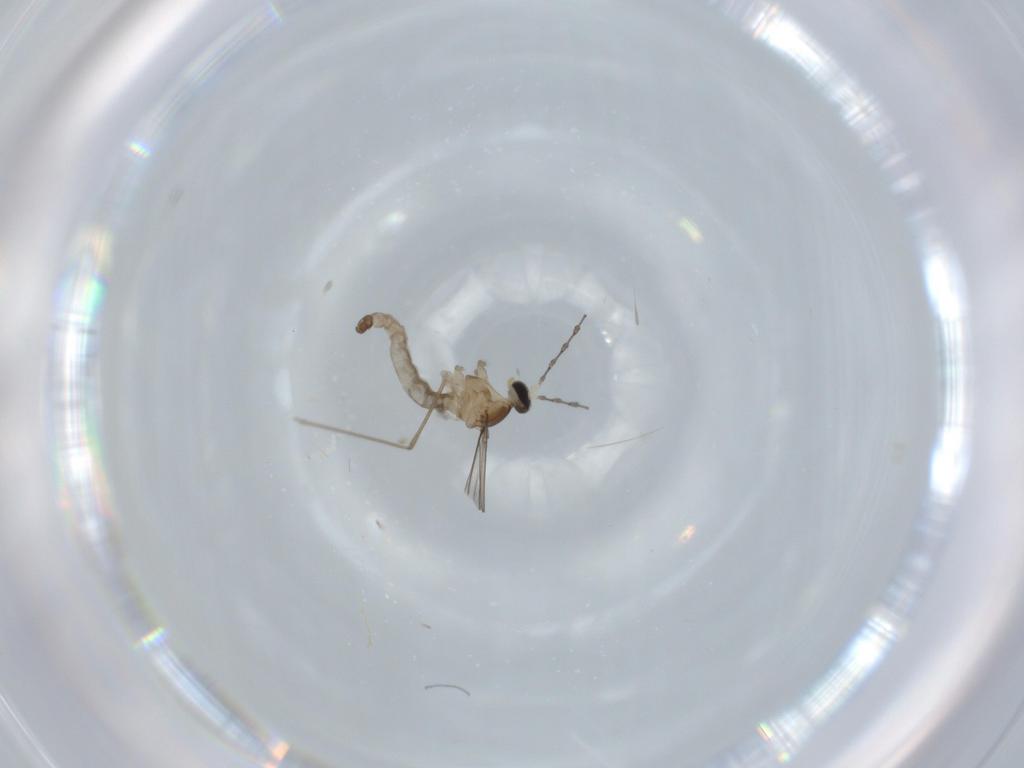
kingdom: Animalia
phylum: Arthropoda
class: Insecta
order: Diptera
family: Cecidomyiidae
